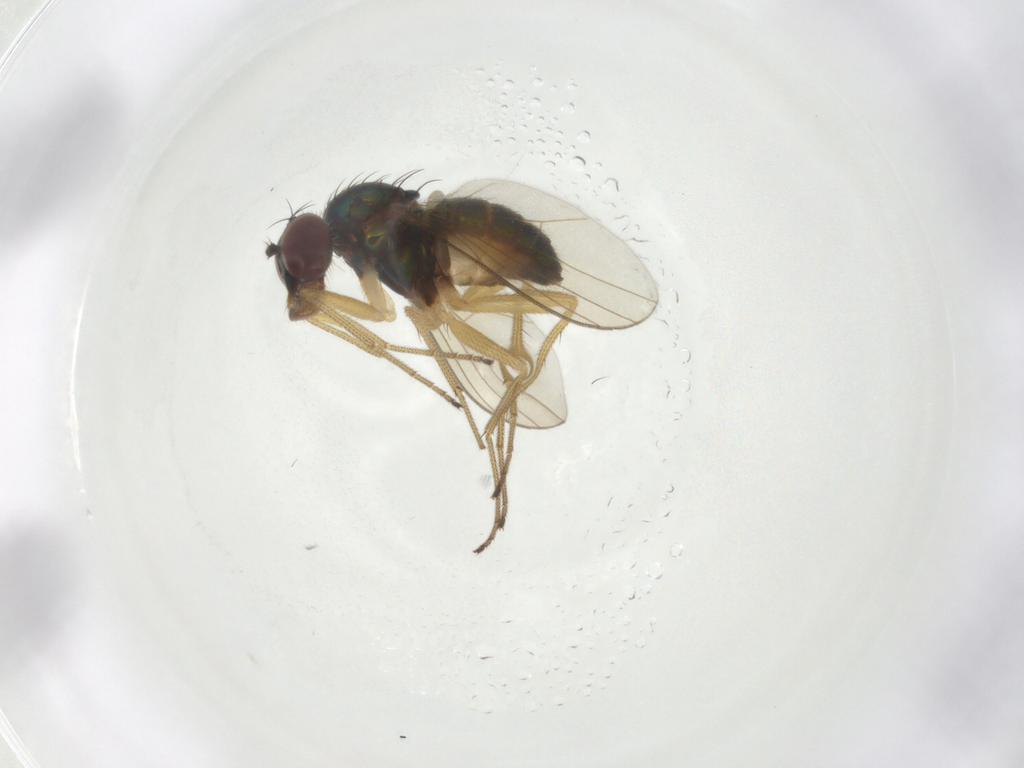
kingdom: Animalia
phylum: Arthropoda
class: Insecta
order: Diptera
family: Dolichopodidae
